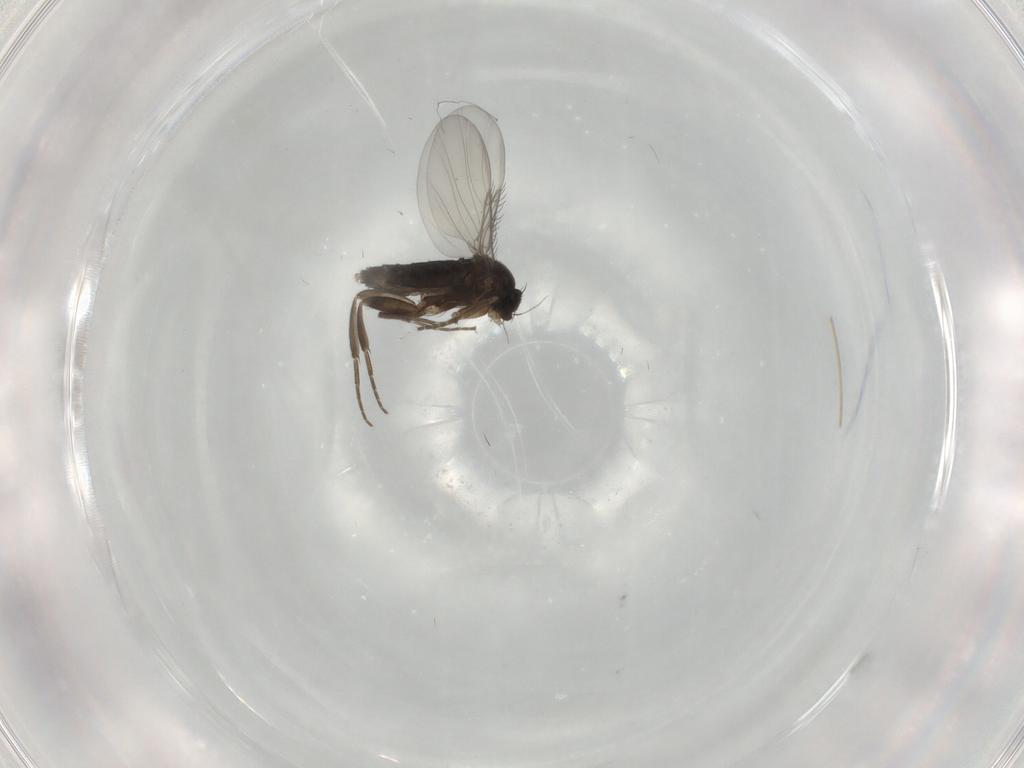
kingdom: Animalia
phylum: Arthropoda
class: Insecta
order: Diptera
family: Phoridae
